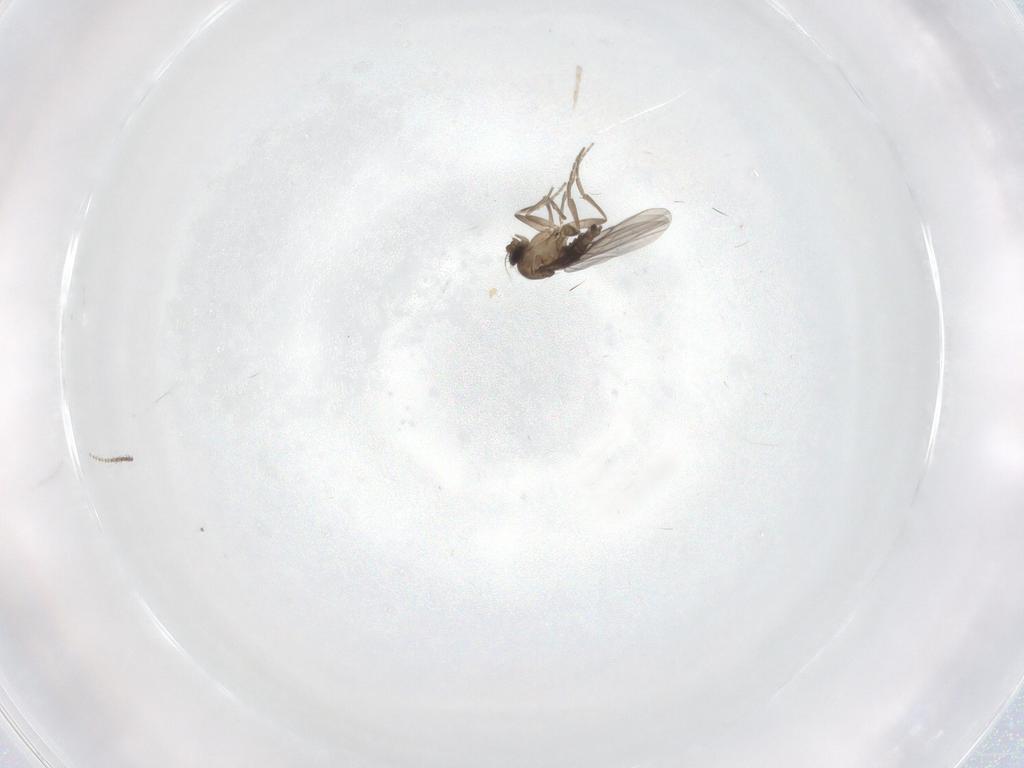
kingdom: Animalia
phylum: Arthropoda
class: Insecta
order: Diptera
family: Cecidomyiidae
